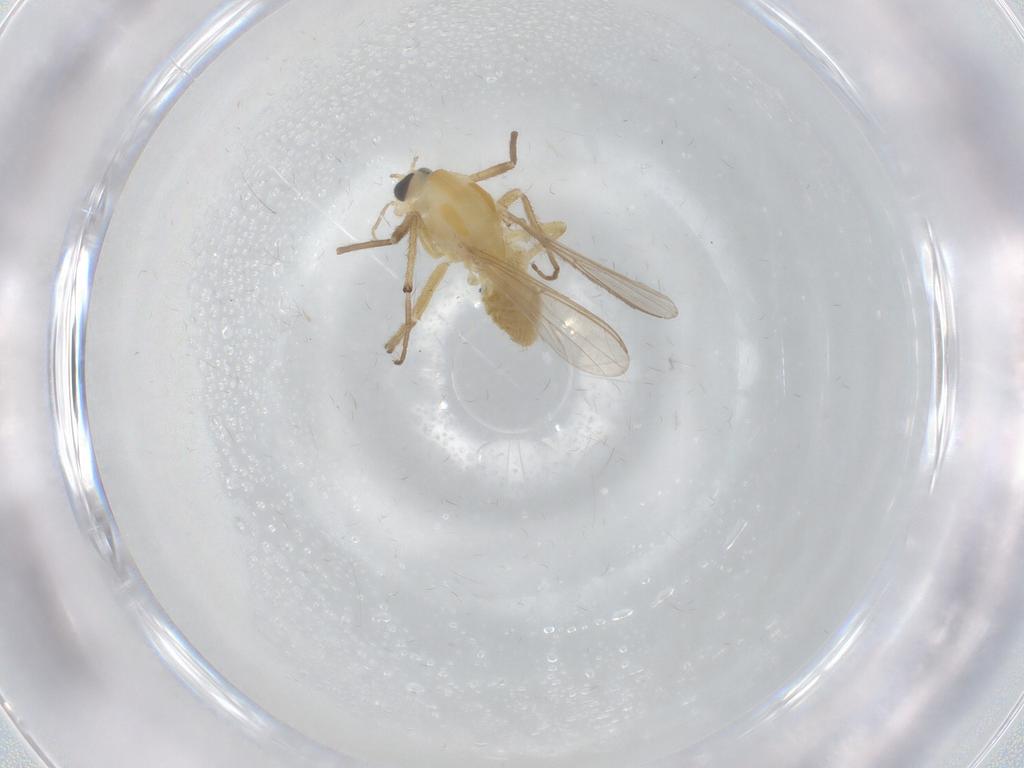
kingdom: Animalia
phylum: Arthropoda
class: Insecta
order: Diptera
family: Chironomidae
